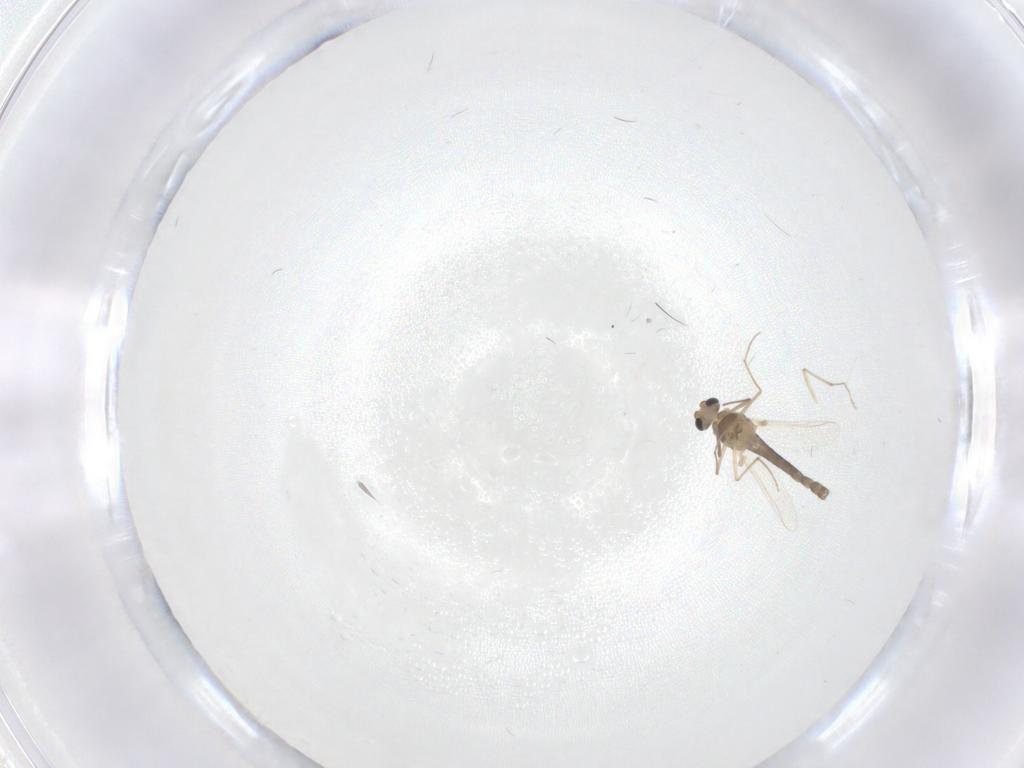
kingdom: Animalia
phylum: Arthropoda
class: Insecta
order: Diptera
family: Chironomidae
